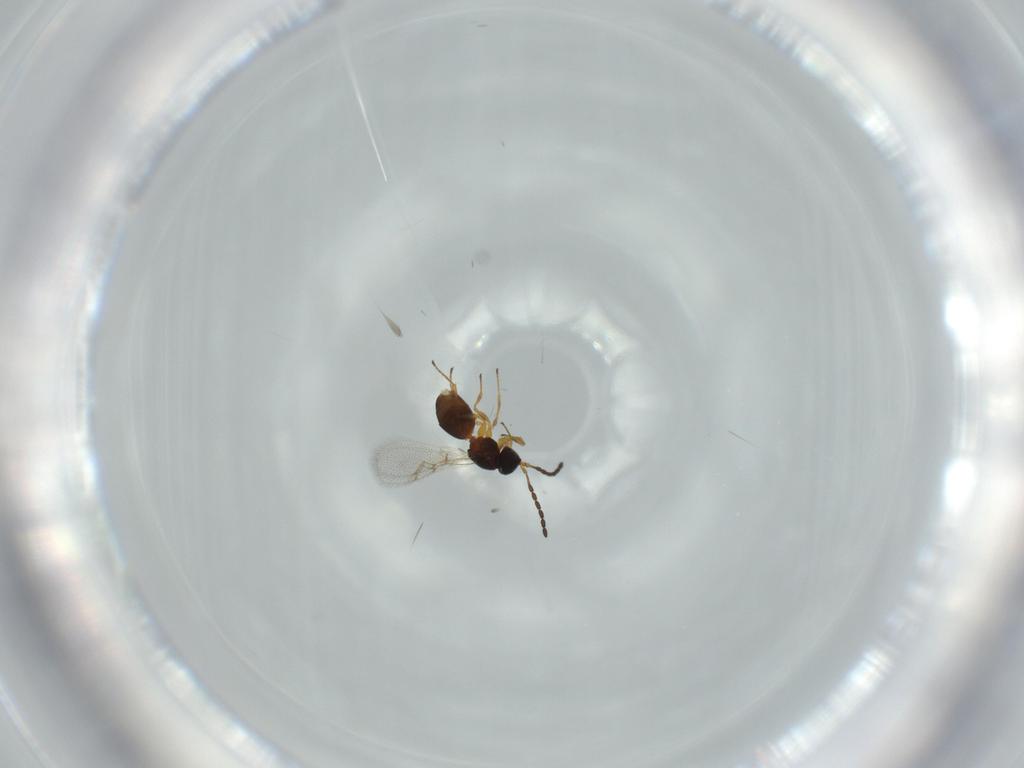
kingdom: Animalia
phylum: Arthropoda
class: Insecta
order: Hymenoptera
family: Figitidae
